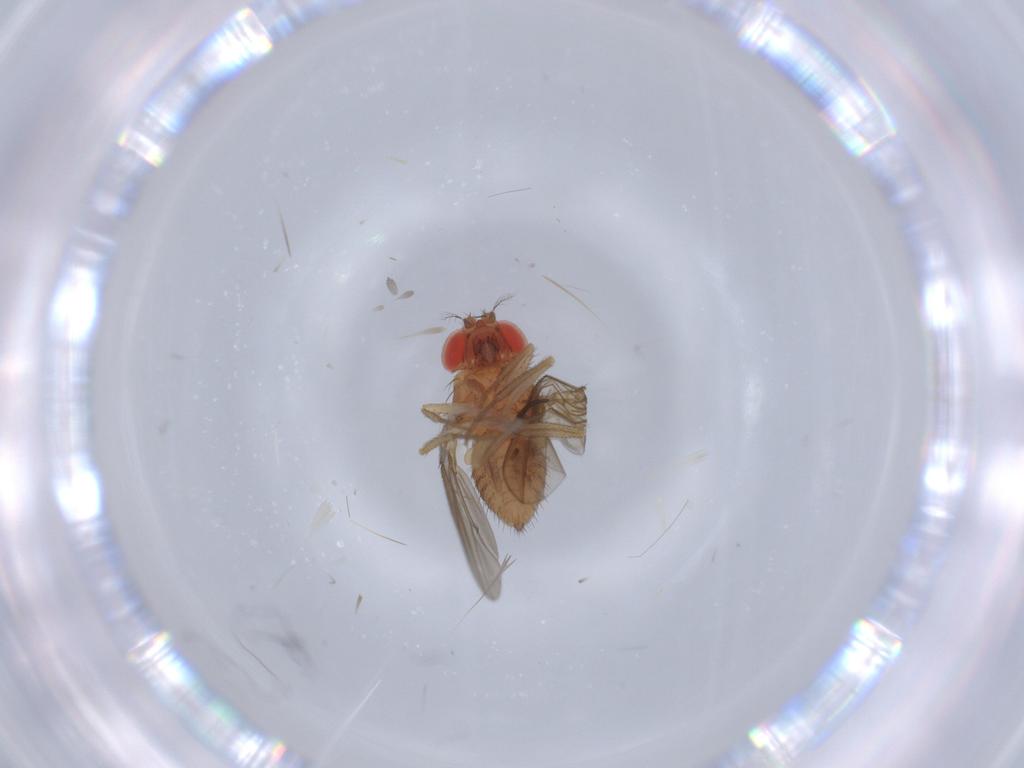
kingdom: Animalia
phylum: Arthropoda
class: Insecta
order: Diptera
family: Drosophilidae
